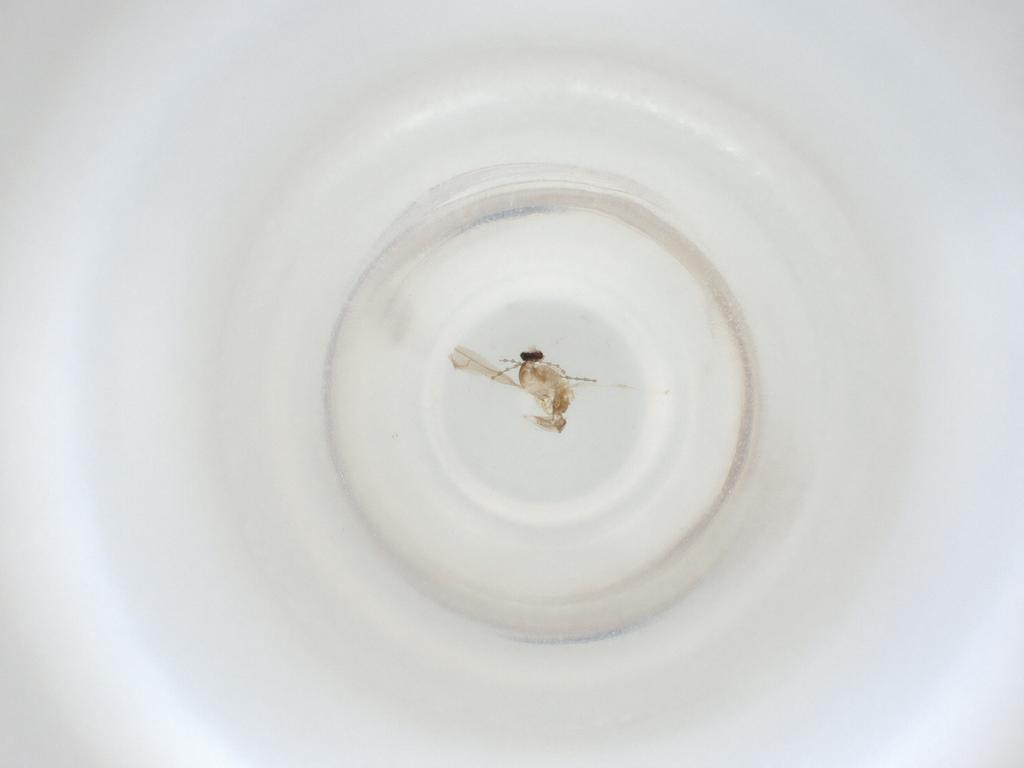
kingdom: Animalia
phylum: Arthropoda
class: Insecta
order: Diptera
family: Cecidomyiidae
